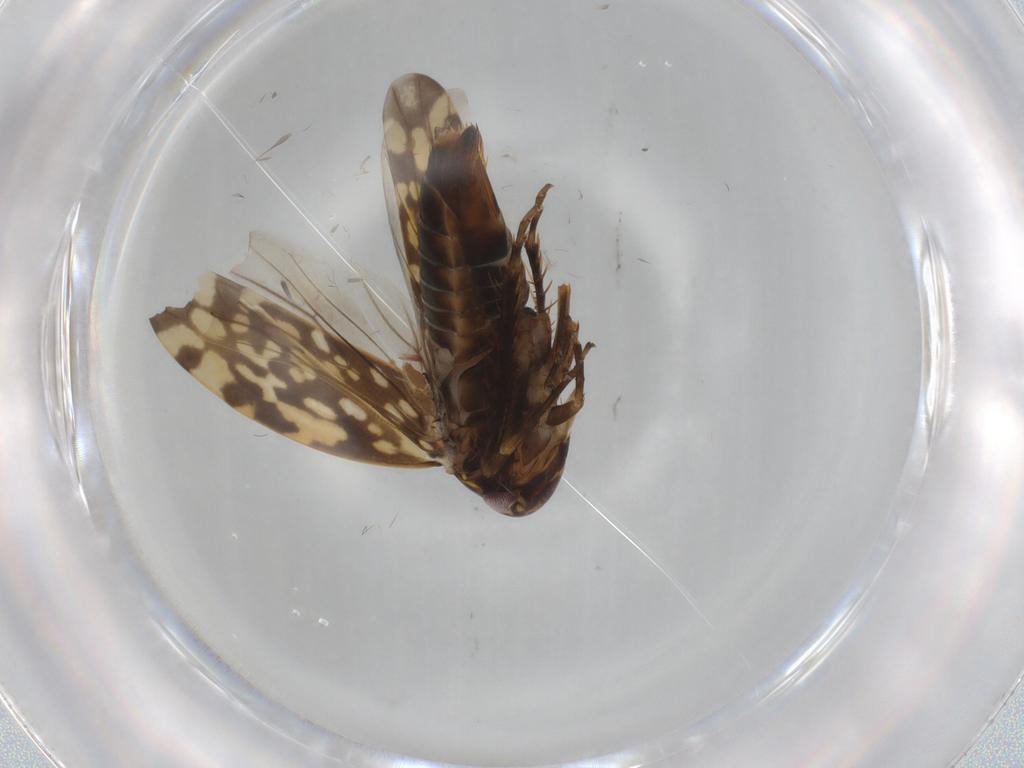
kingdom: Animalia
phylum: Arthropoda
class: Insecta
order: Hemiptera
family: Cicadellidae
